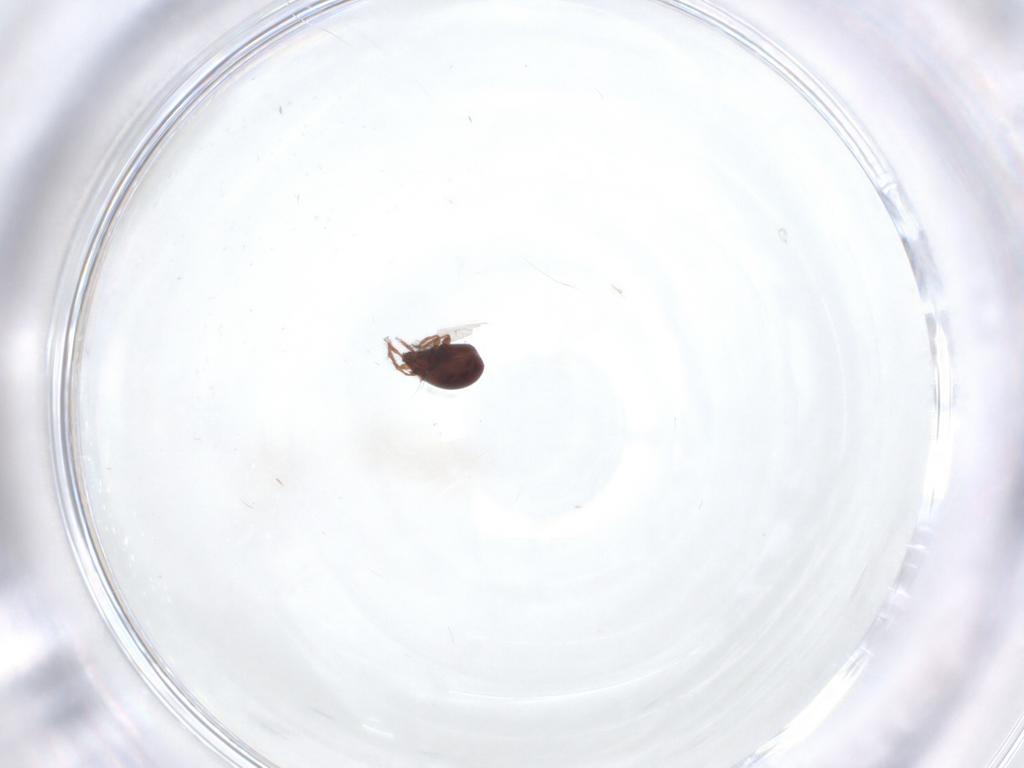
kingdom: Animalia
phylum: Arthropoda
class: Arachnida
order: Sarcoptiformes
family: Ceratozetidae
